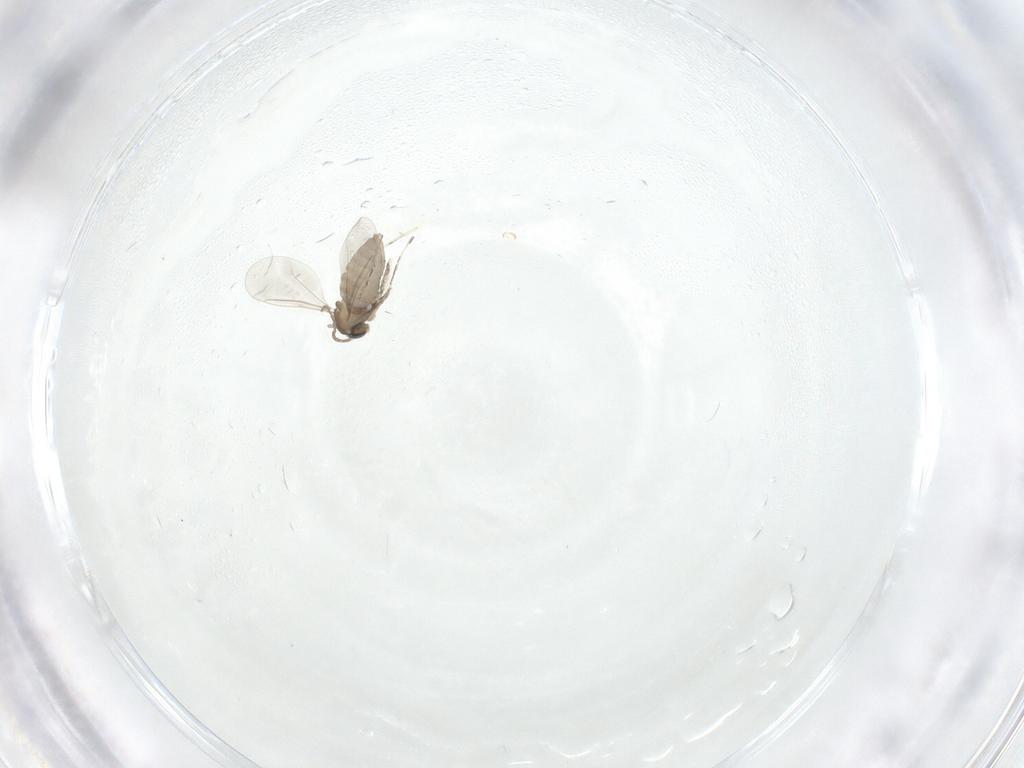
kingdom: Animalia
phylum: Arthropoda
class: Insecta
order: Diptera
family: Cecidomyiidae
